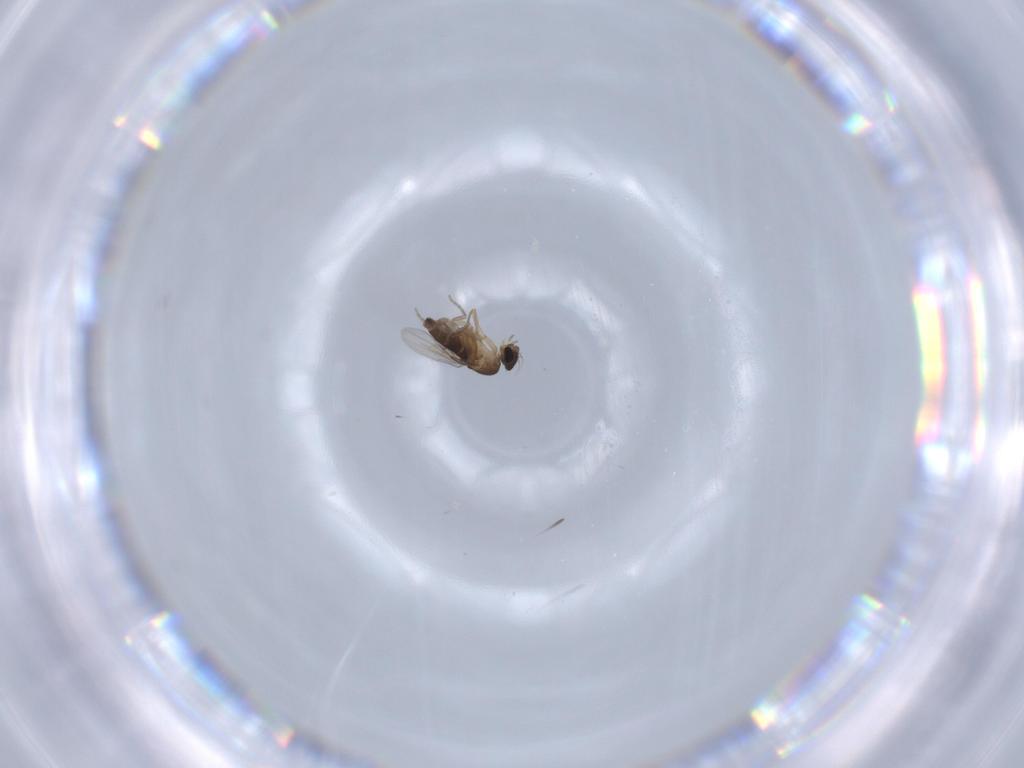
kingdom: Animalia
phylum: Arthropoda
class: Insecta
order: Diptera
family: Phoridae
